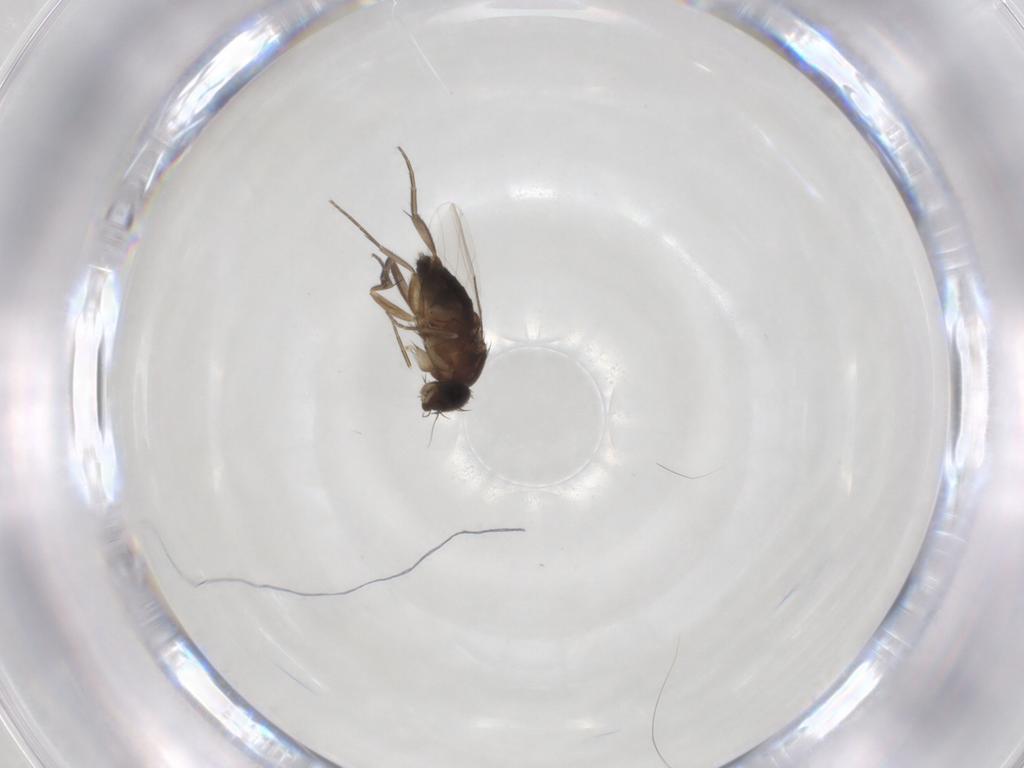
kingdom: Animalia
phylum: Arthropoda
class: Insecta
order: Diptera
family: Phoridae
